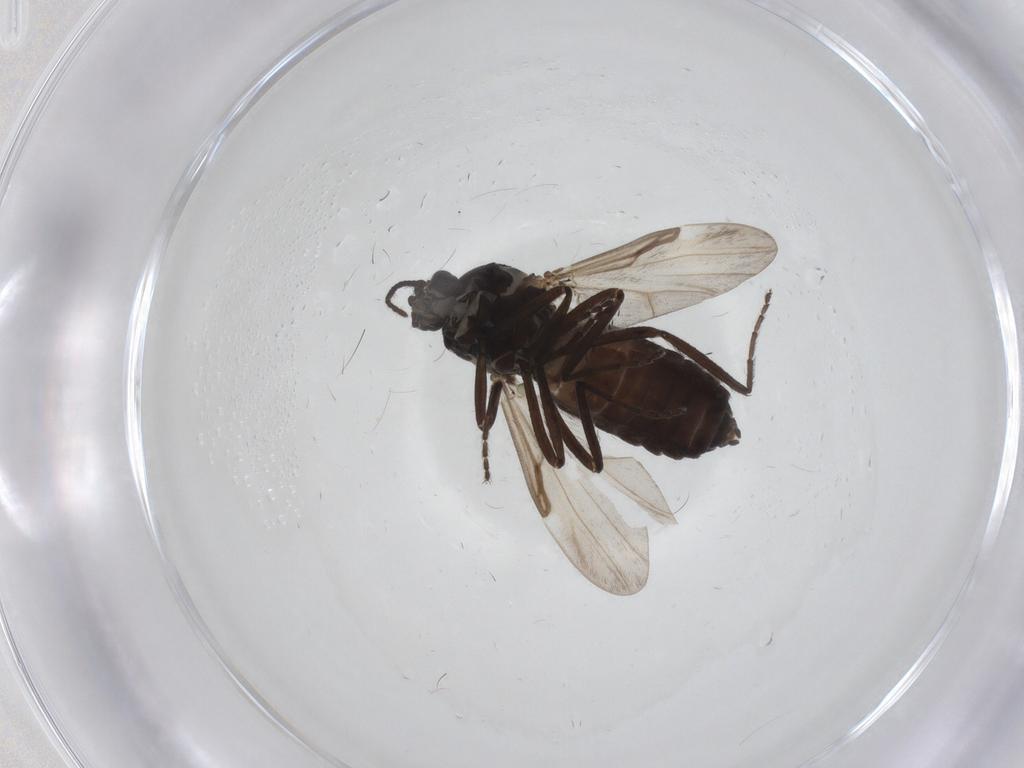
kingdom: Animalia
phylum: Arthropoda
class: Insecta
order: Diptera
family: Ceratopogonidae
